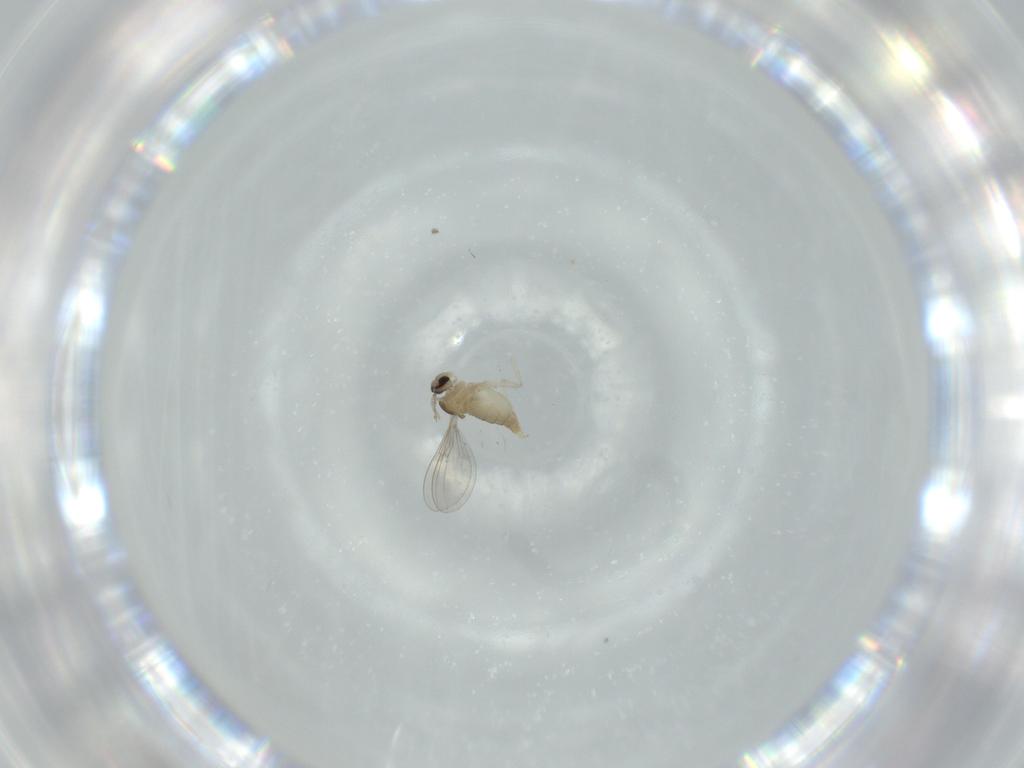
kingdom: Animalia
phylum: Arthropoda
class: Insecta
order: Diptera
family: Cecidomyiidae
